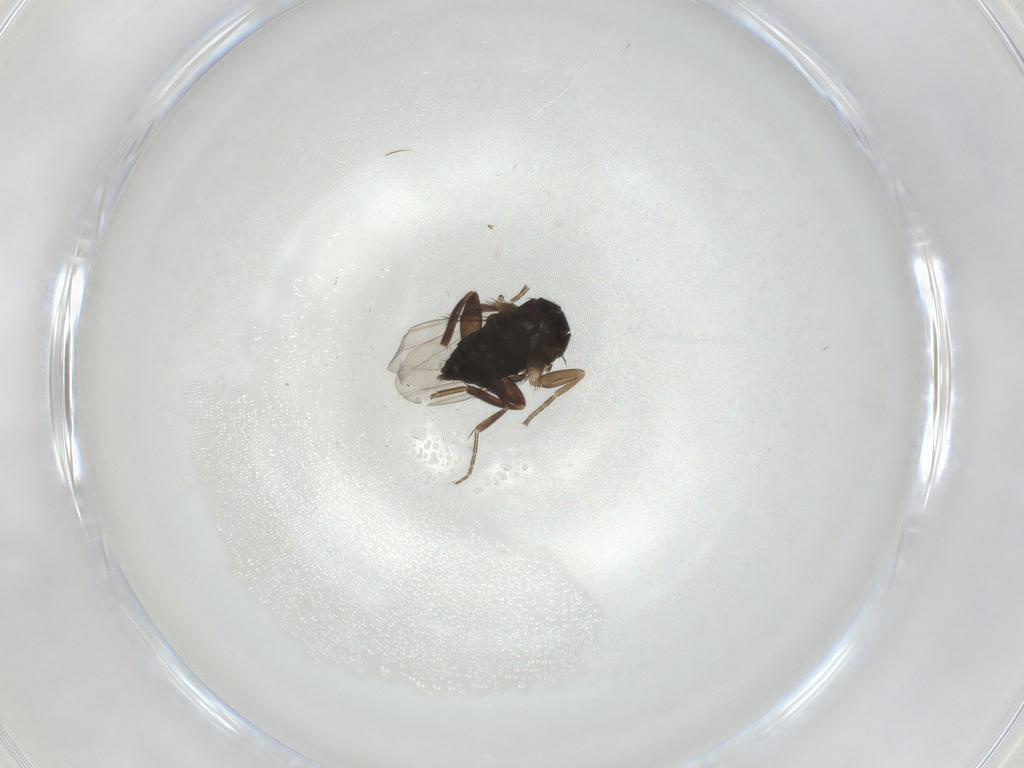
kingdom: Animalia
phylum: Arthropoda
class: Insecta
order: Diptera
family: Phoridae
